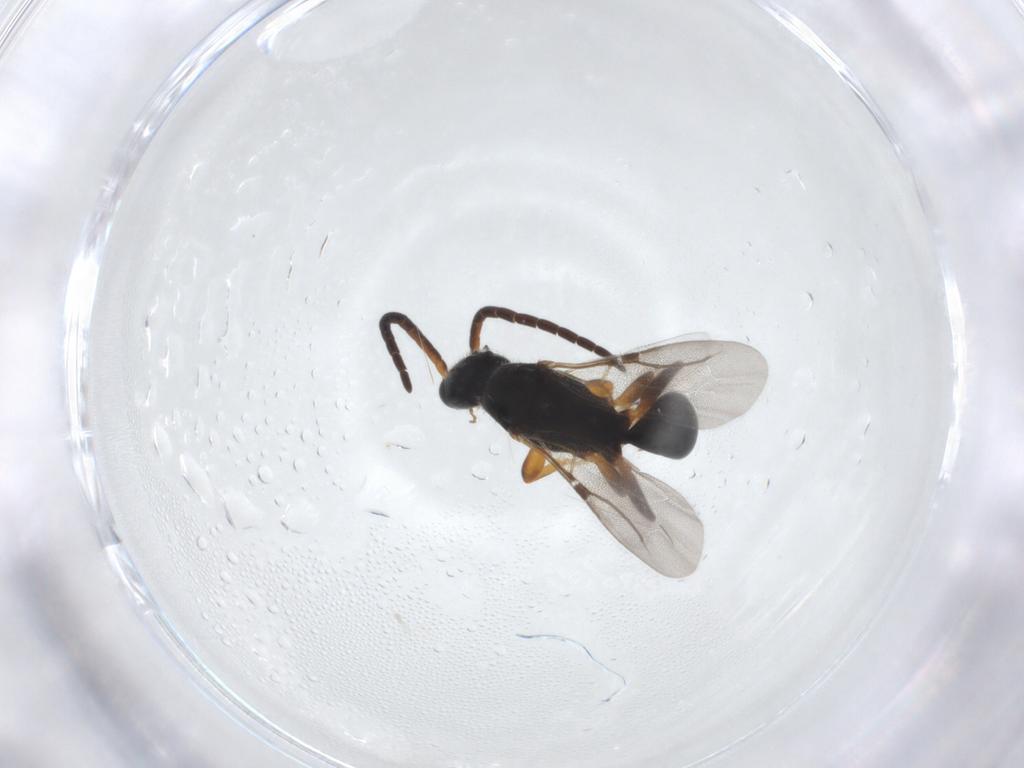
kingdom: Animalia
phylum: Arthropoda
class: Insecta
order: Hymenoptera
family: Bethylidae
